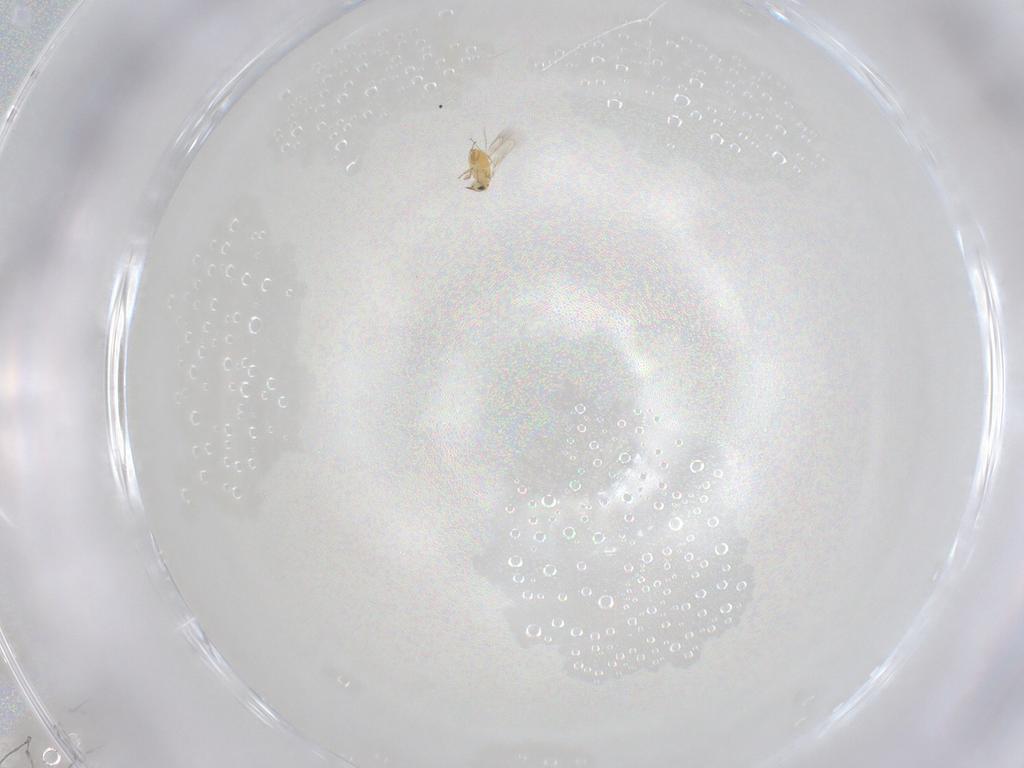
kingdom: Animalia
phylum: Arthropoda
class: Insecta
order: Hymenoptera
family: Trichogrammatidae
